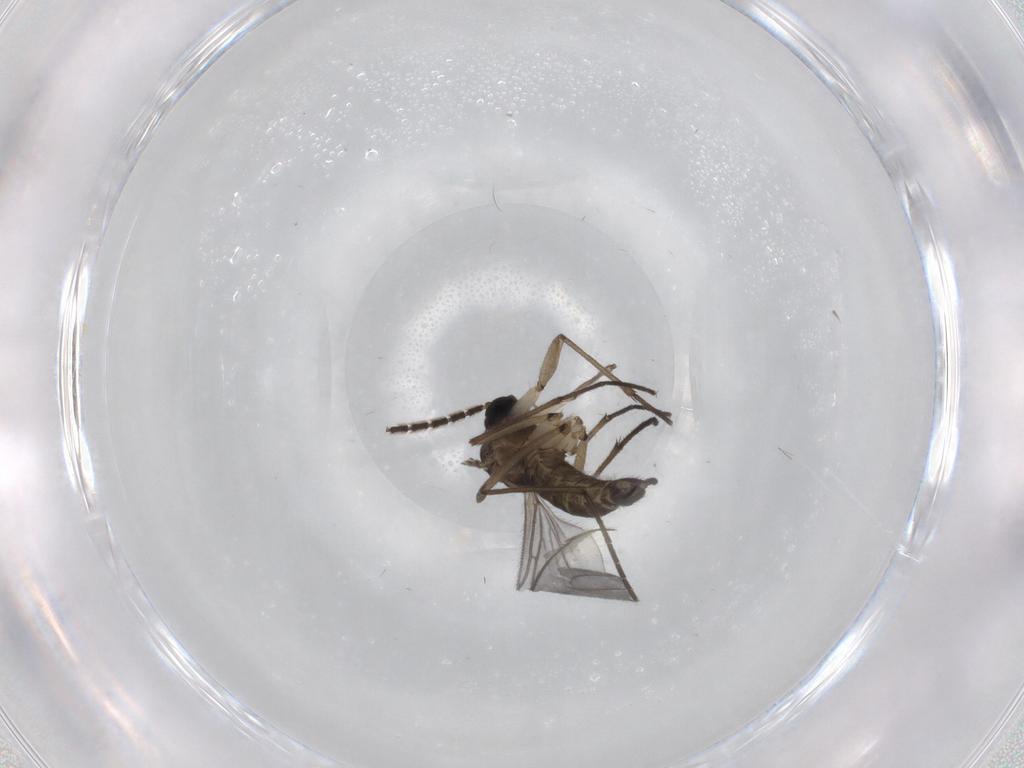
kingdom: Animalia
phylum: Arthropoda
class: Insecta
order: Diptera
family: Sciaridae
